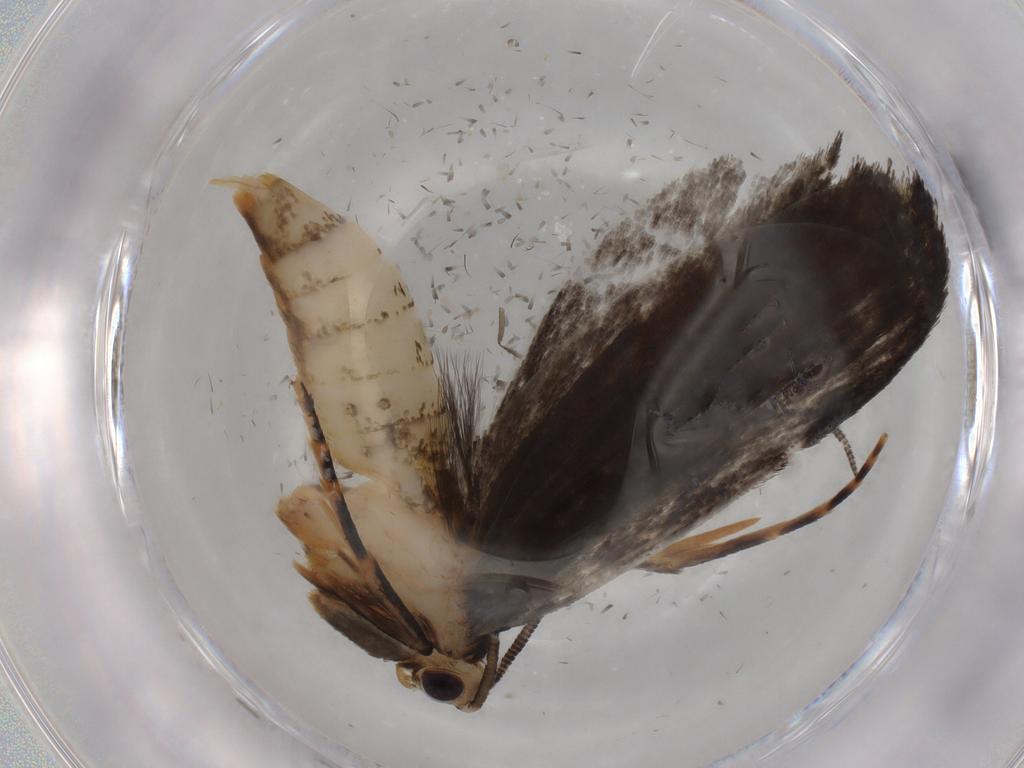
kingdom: Animalia
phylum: Arthropoda
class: Insecta
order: Lepidoptera
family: Tineidae
